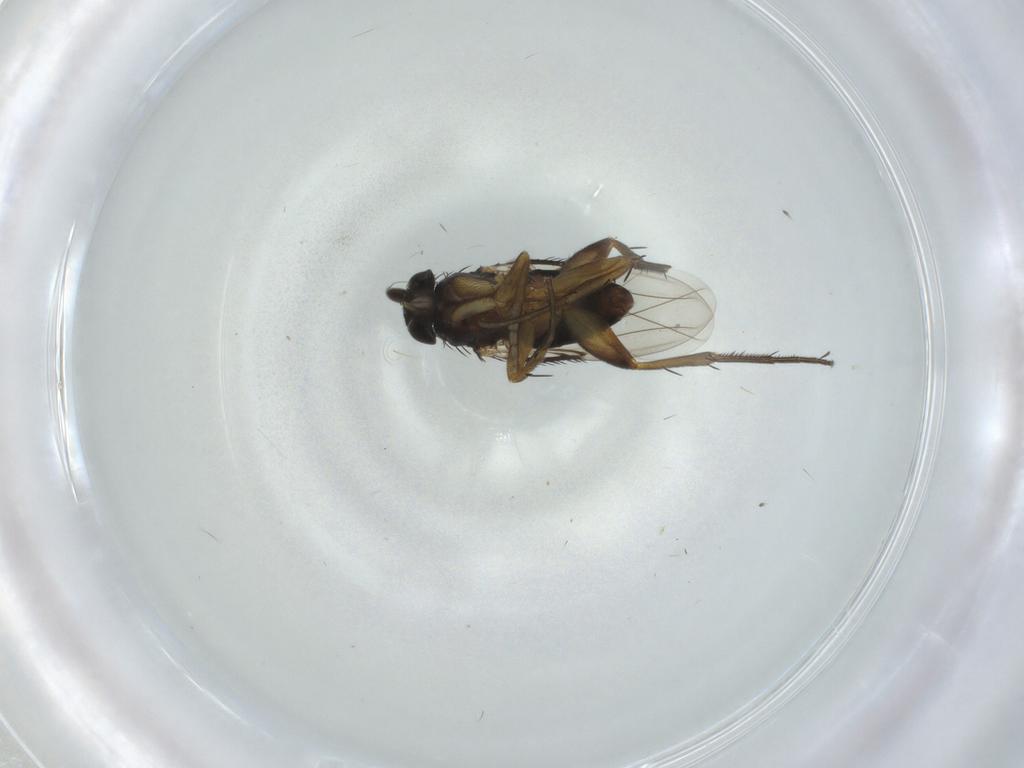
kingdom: Animalia
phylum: Arthropoda
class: Insecta
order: Diptera
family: Phoridae
